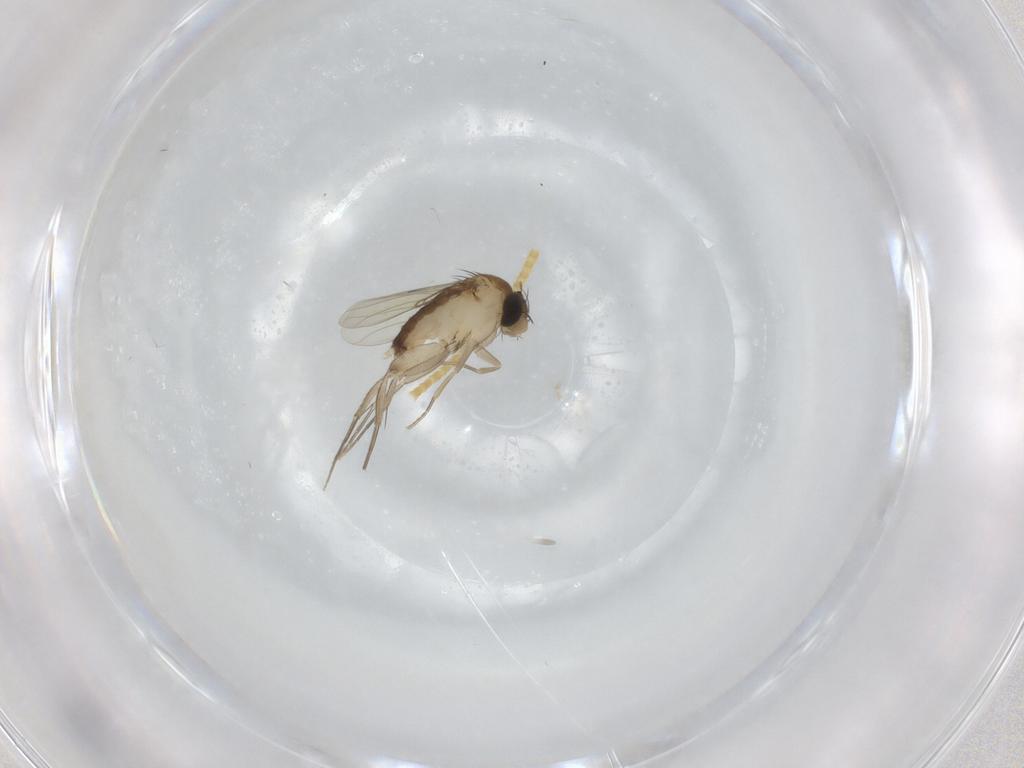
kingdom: Animalia
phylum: Arthropoda
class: Insecta
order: Diptera
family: Phoridae
